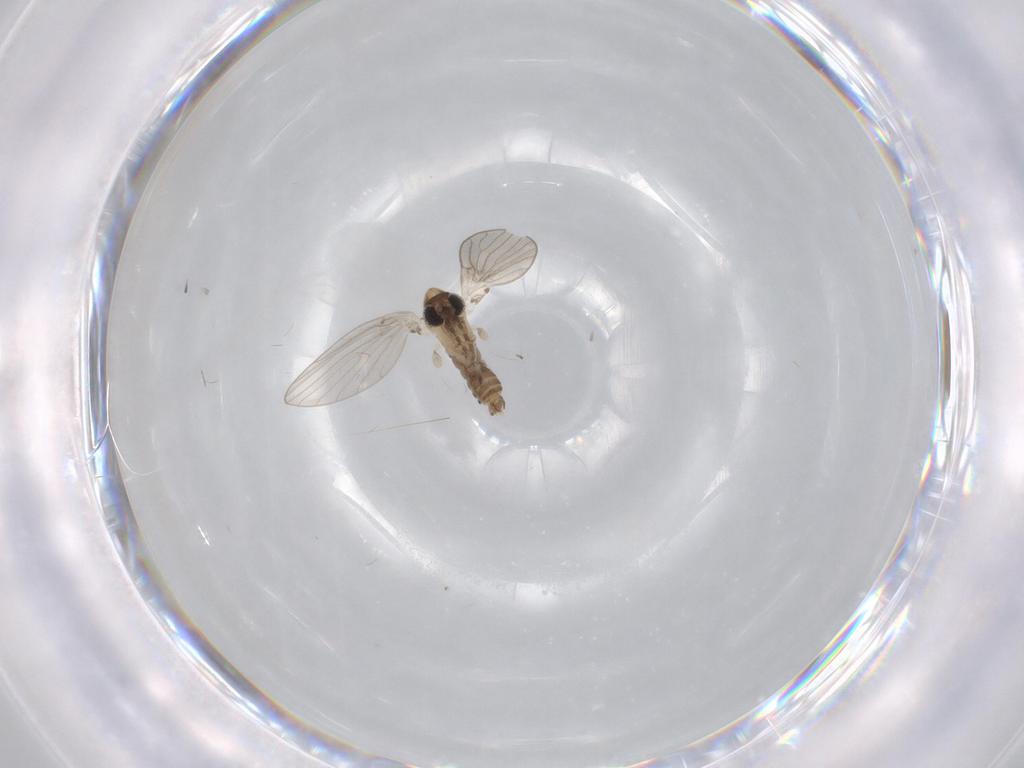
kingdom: Animalia
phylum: Arthropoda
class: Insecta
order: Diptera
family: Psychodidae
